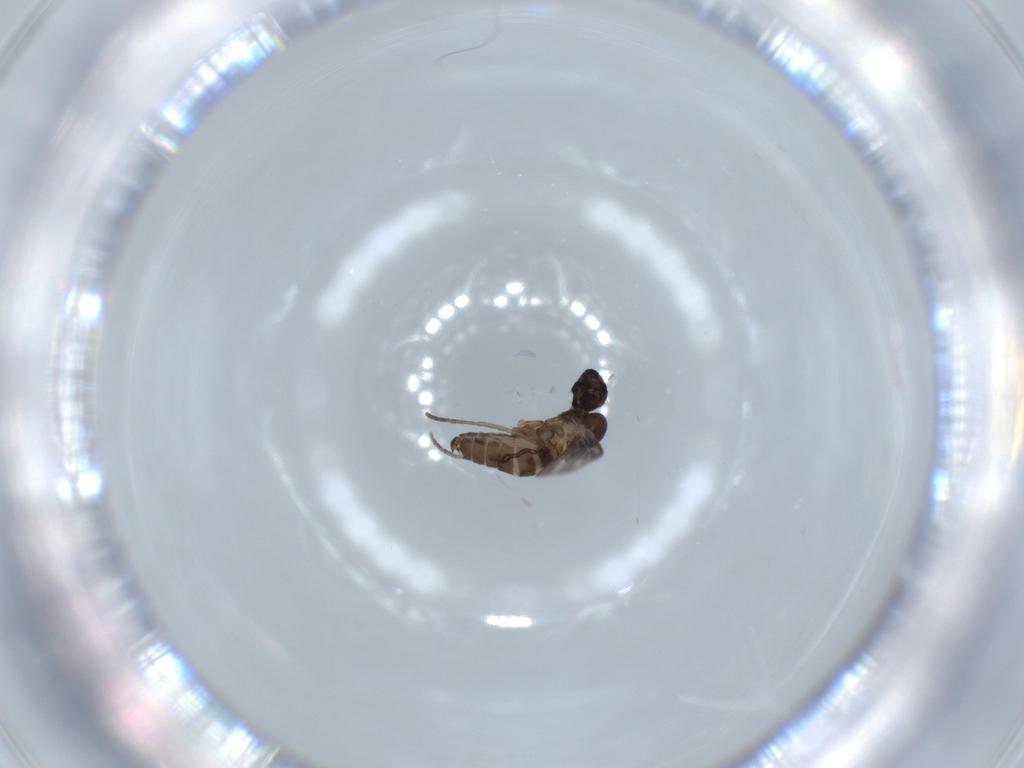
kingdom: Animalia
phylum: Arthropoda
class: Insecta
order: Diptera
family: Psychodidae
